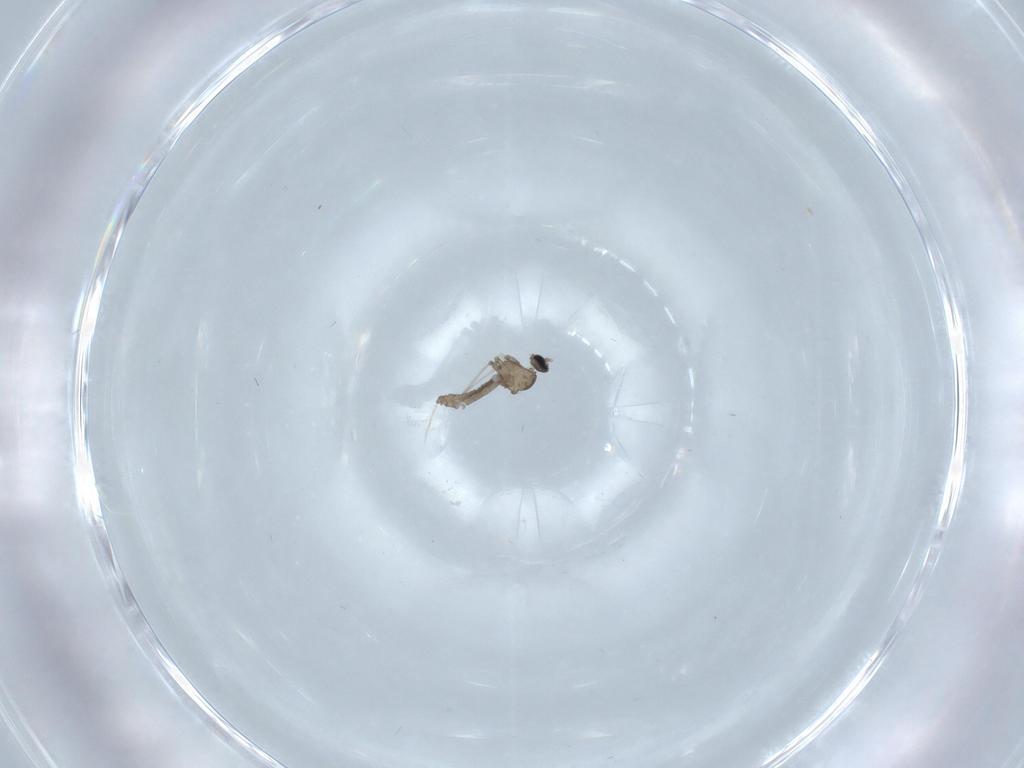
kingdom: Animalia
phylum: Arthropoda
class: Insecta
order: Diptera
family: Cecidomyiidae
